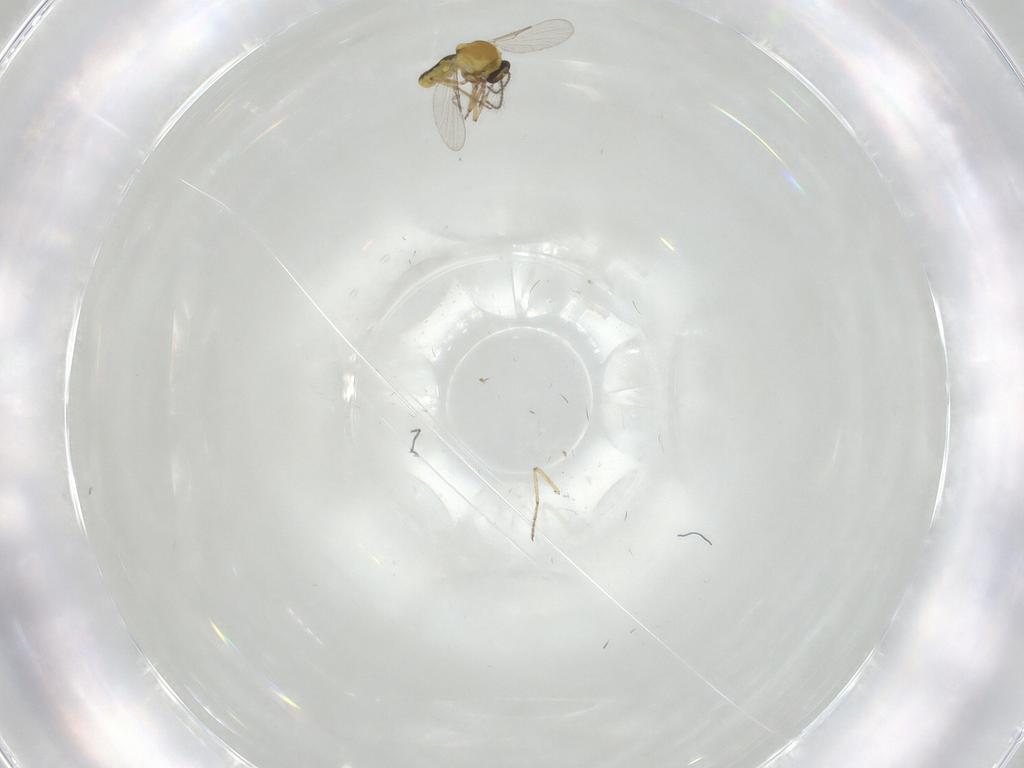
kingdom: Animalia
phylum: Arthropoda
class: Insecta
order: Diptera
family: Ceratopogonidae
